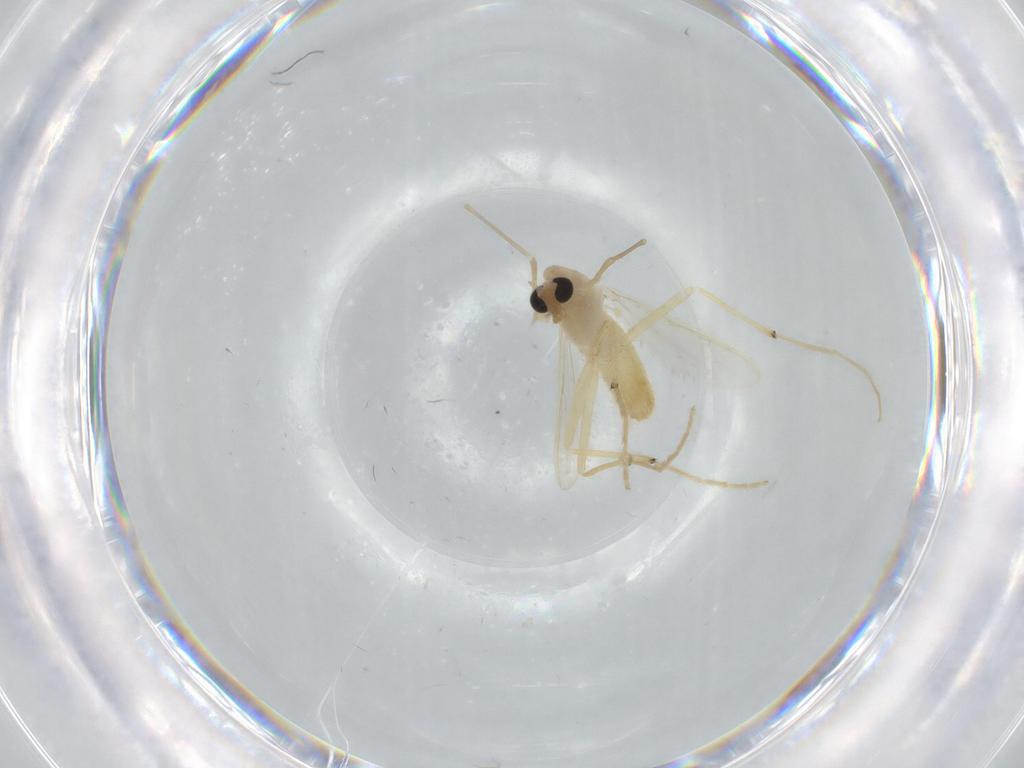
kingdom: Animalia
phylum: Arthropoda
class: Insecta
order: Diptera
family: Chironomidae
